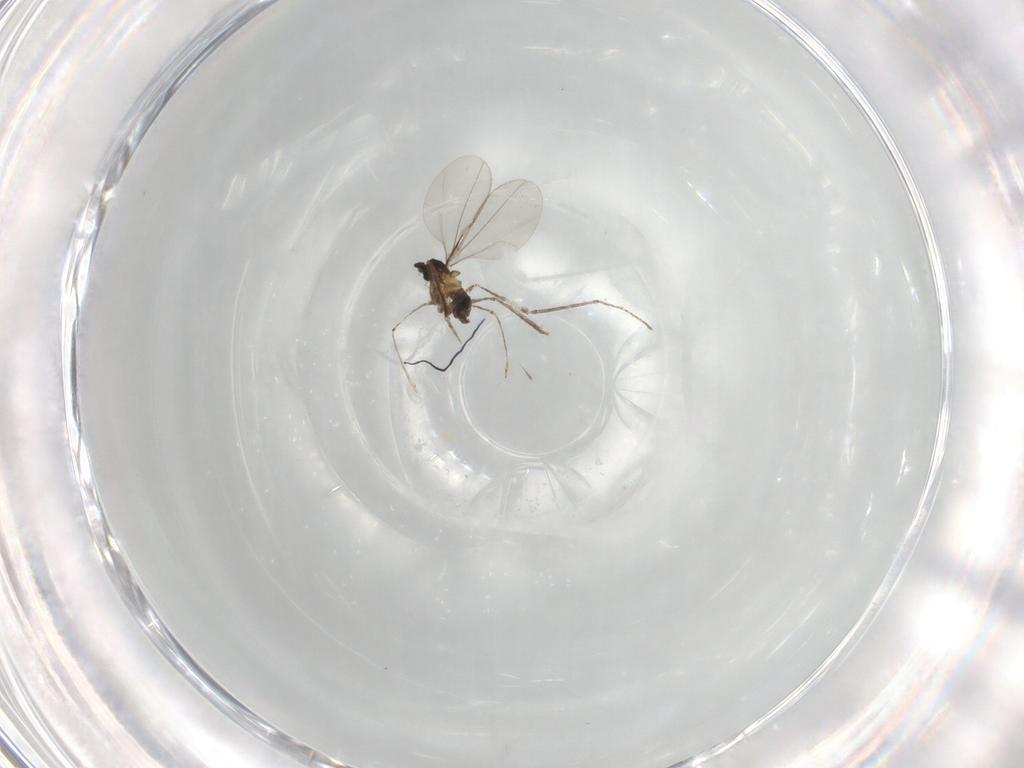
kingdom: Animalia
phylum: Arthropoda
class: Insecta
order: Diptera
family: Cecidomyiidae
